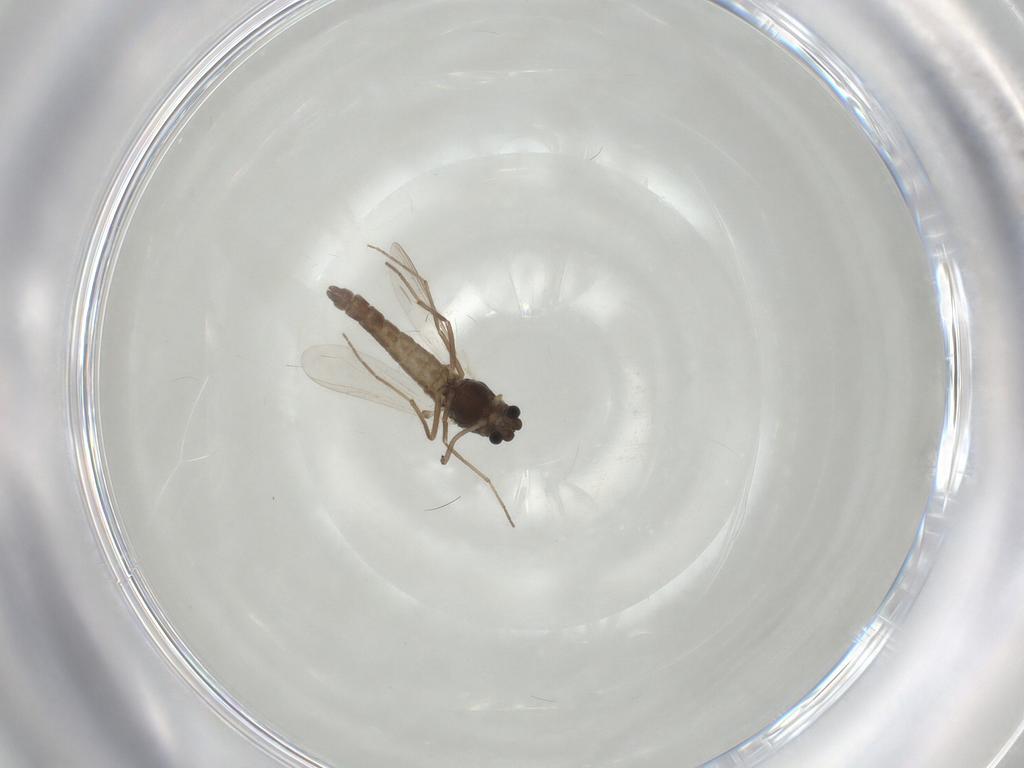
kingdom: Animalia
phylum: Arthropoda
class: Insecta
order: Diptera
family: Chironomidae
